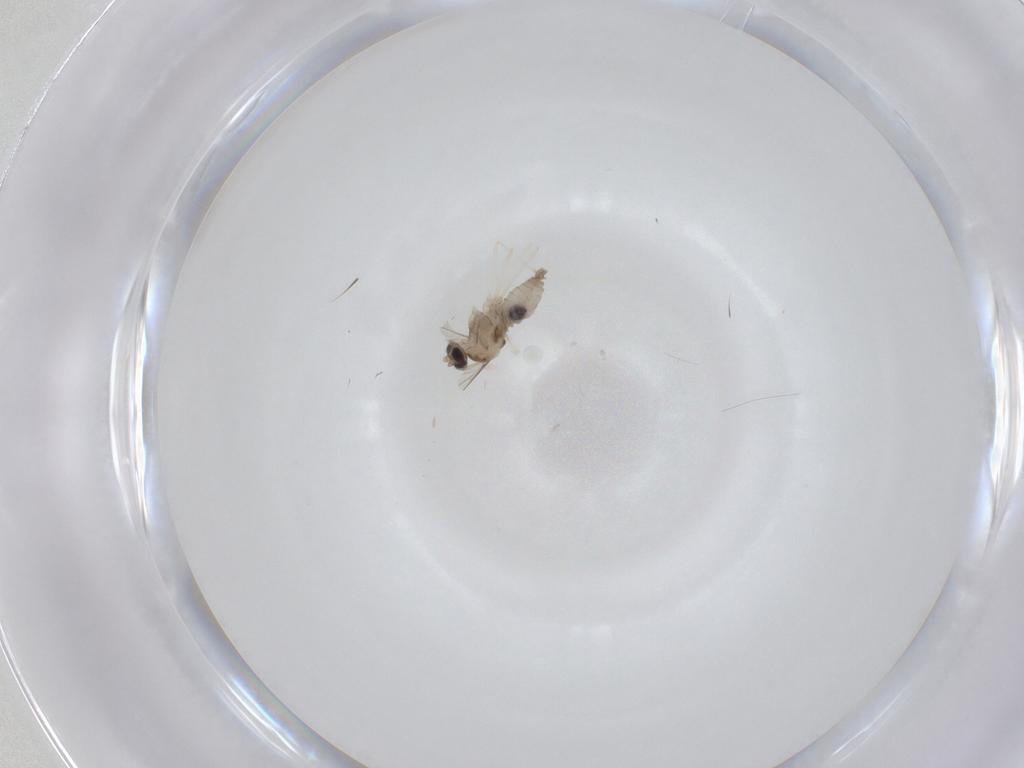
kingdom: Animalia
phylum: Arthropoda
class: Insecta
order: Diptera
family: Cecidomyiidae
